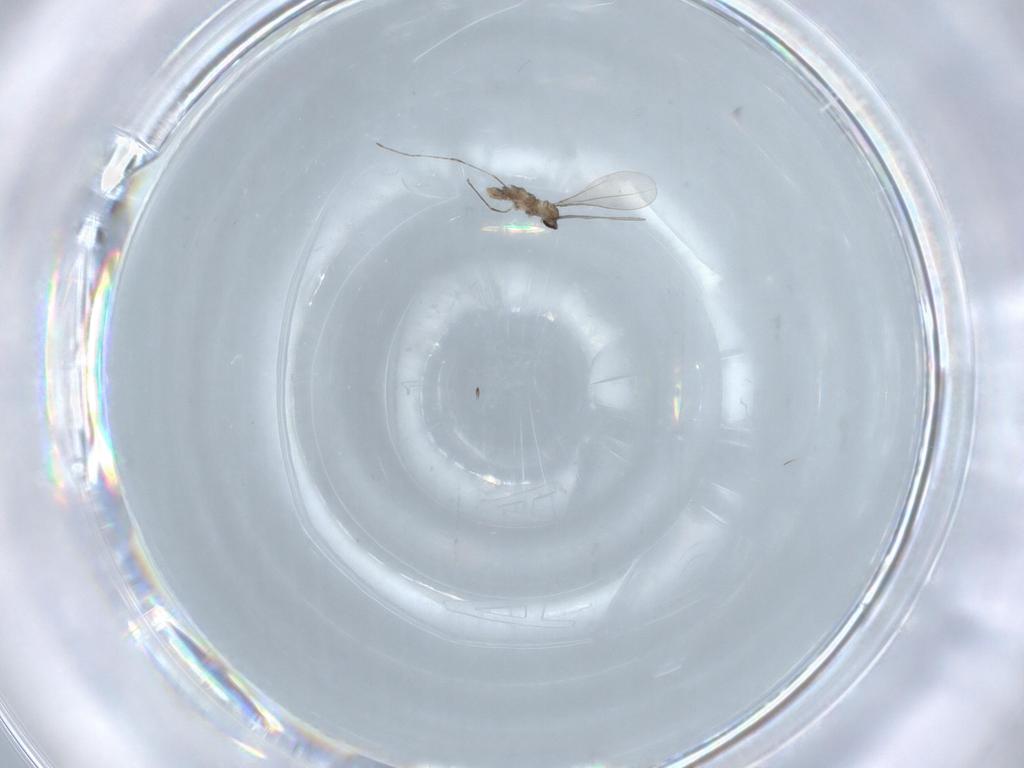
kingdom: Animalia
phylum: Arthropoda
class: Insecta
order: Diptera
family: Cecidomyiidae
